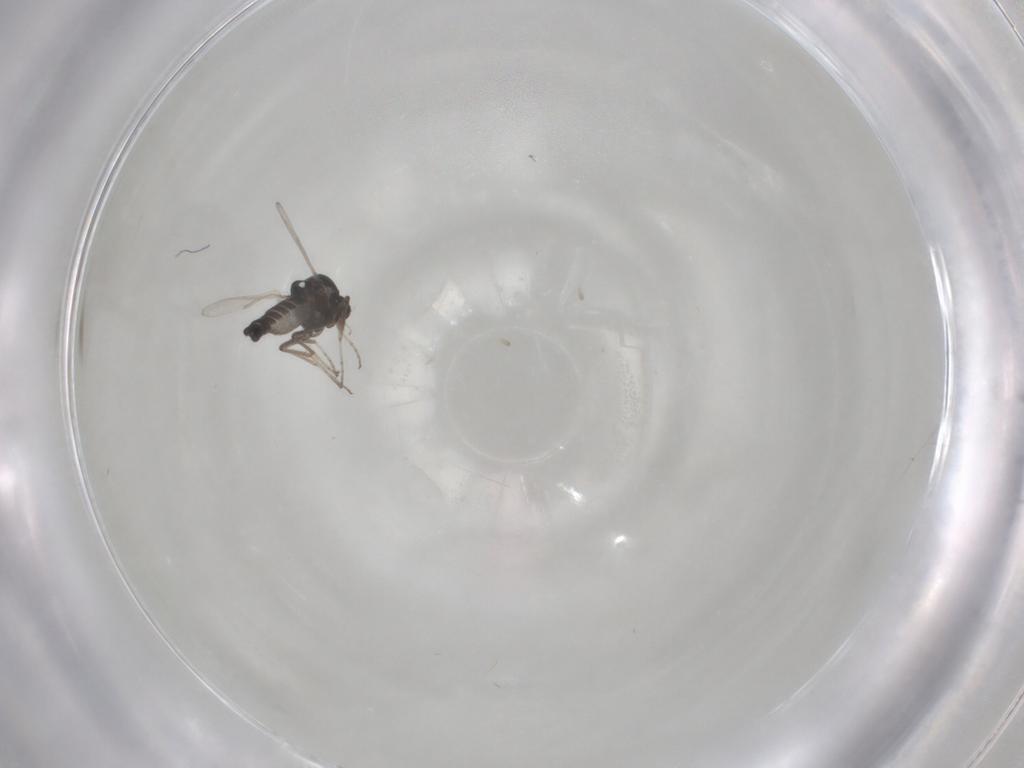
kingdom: Animalia
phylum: Arthropoda
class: Insecta
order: Diptera
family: Ceratopogonidae
